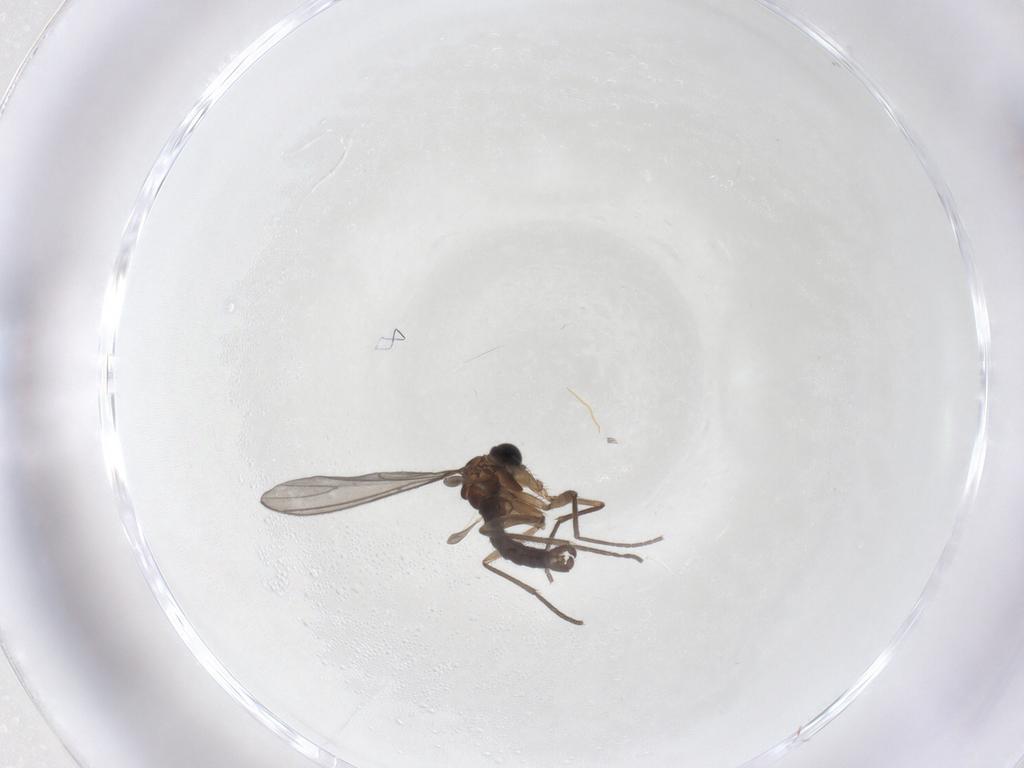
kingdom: Animalia
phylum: Arthropoda
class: Insecta
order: Diptera
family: Sciaridae
